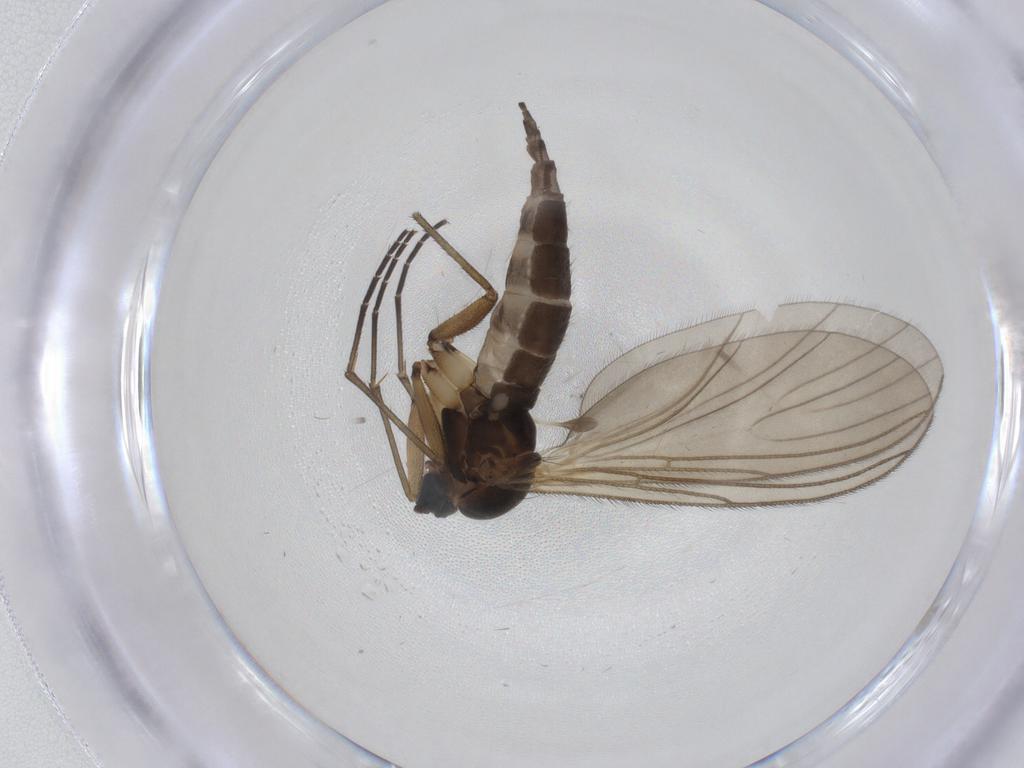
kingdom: Animalia
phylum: Arthropoda
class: Insecta
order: Diptera
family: Sciaridae
